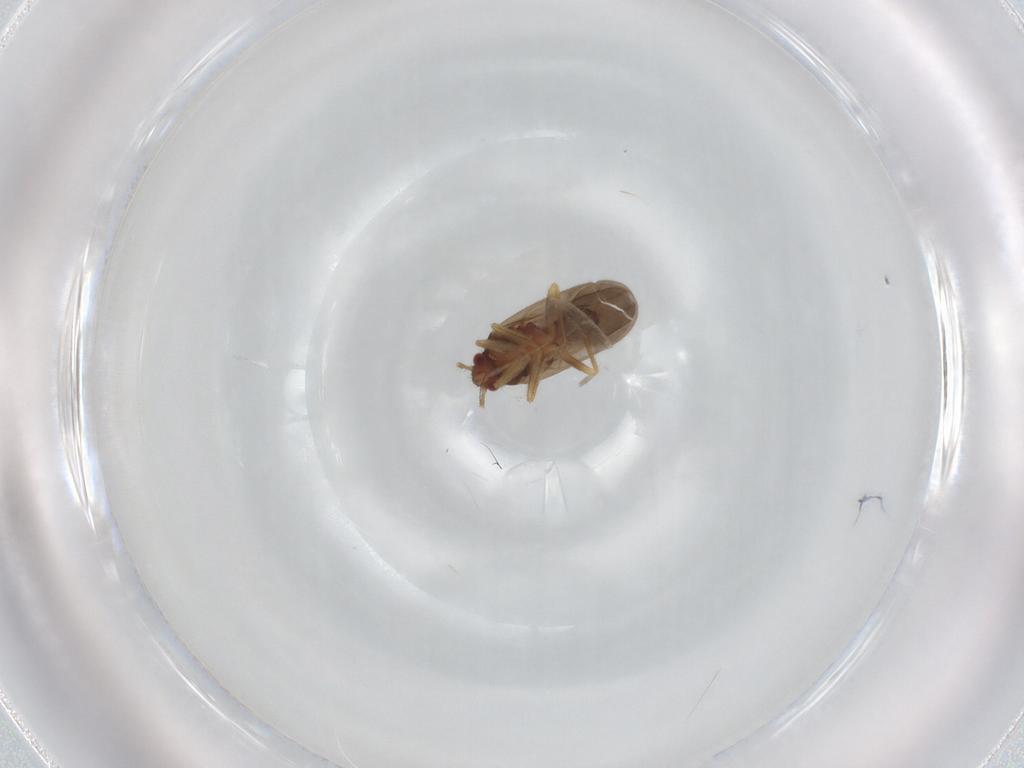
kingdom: Animalia
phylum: Arthropoda
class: Insecta
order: Hemiptera
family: Ceratocombidae
